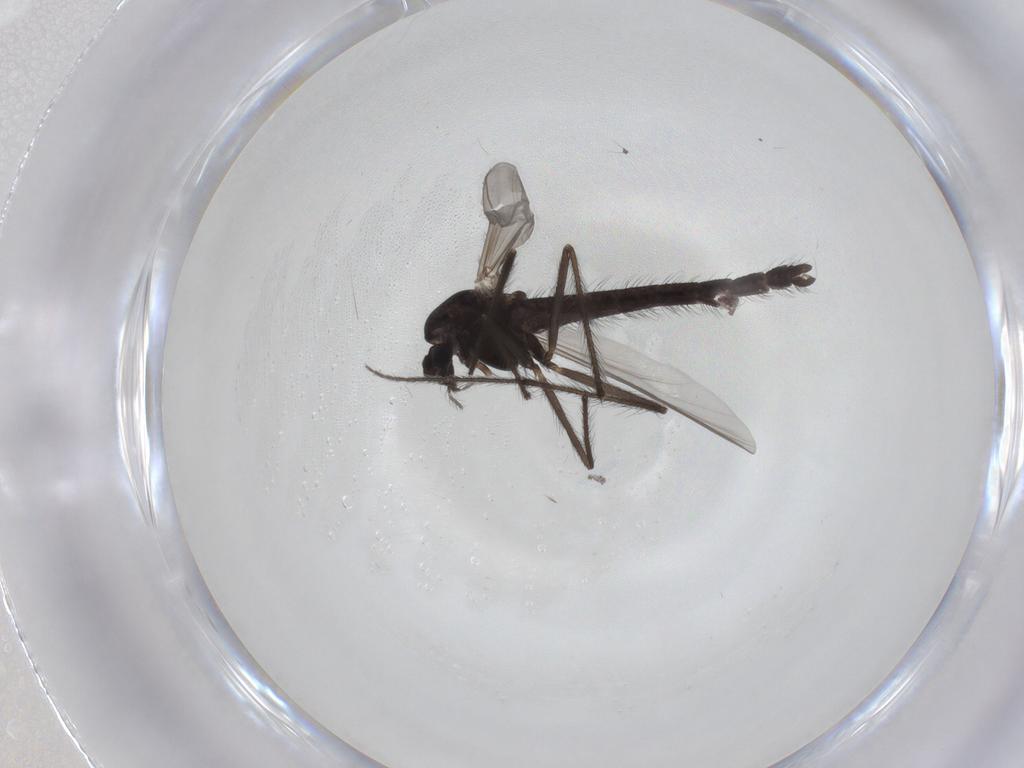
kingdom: Animalia
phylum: Arthropoda
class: Insecta
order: Diptera
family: Chironomidae
